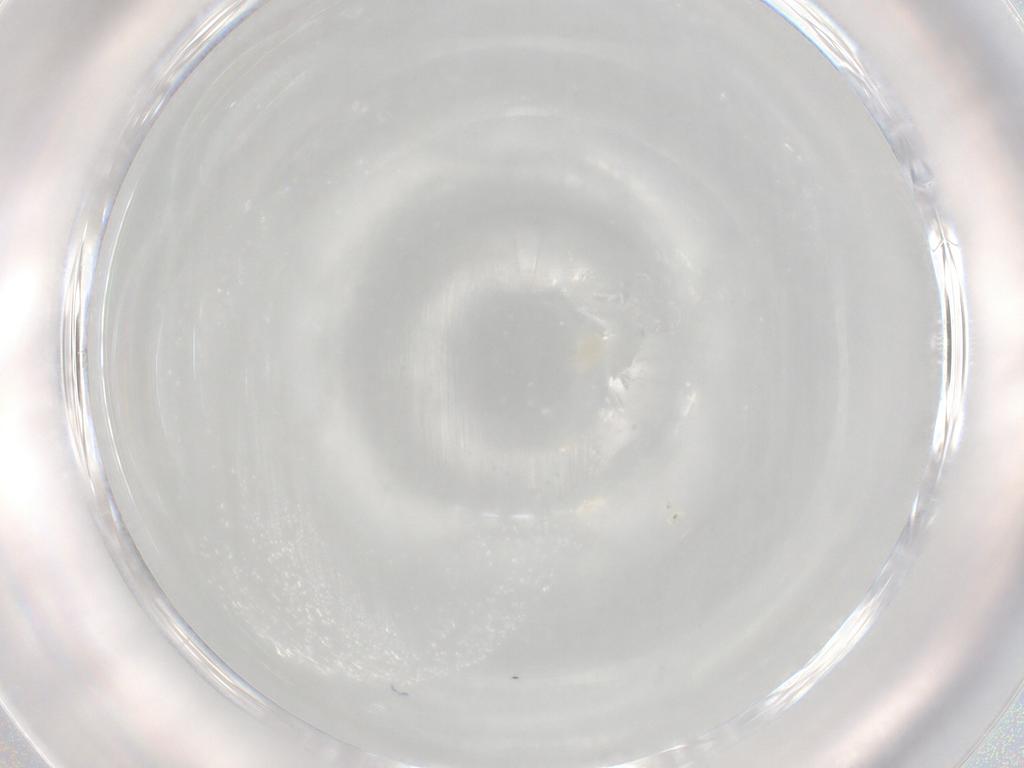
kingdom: Animalia
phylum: Arthropoda
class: Arachnida
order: Trombidiformes
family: Eupodidae
